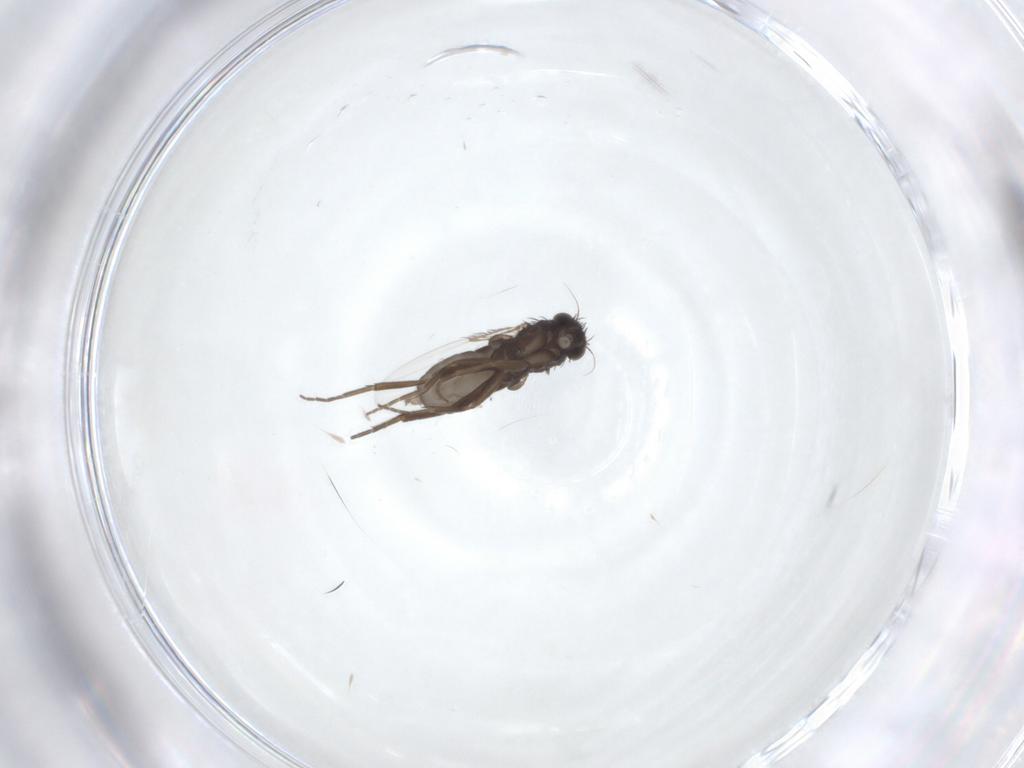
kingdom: Animalia
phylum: Arthropoda
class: Insecta
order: Diptera
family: Phoridae
